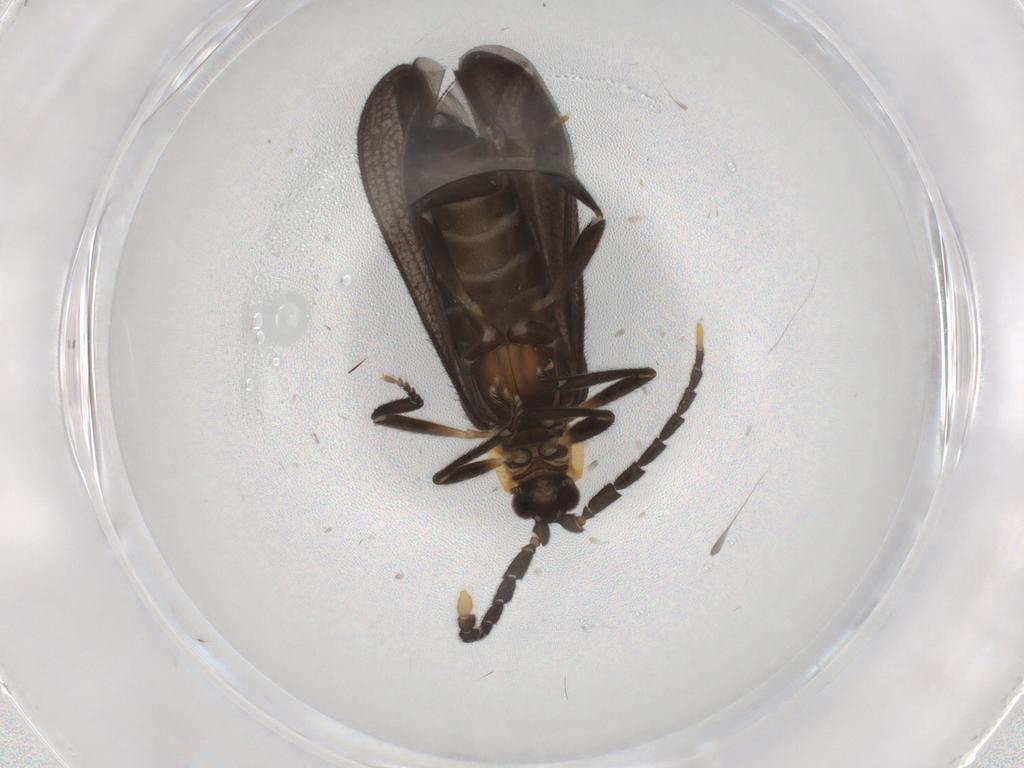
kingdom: Animalia
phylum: Arthropoda
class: Insecta
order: Coleoptera
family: Lycidae
